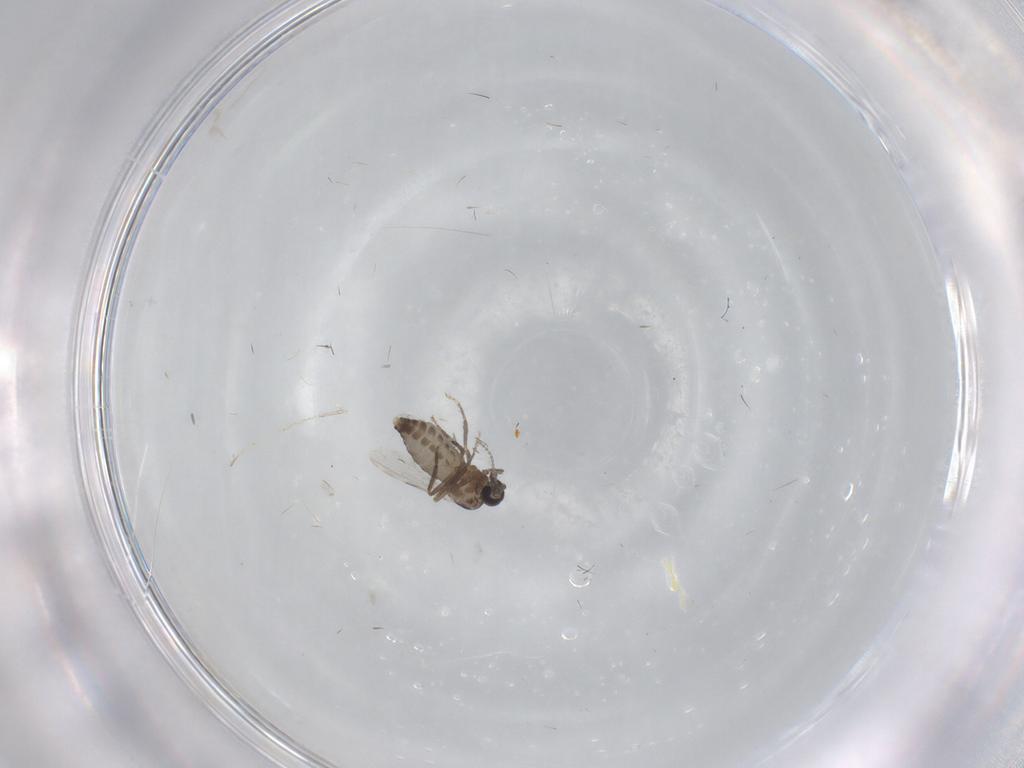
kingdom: Animalia
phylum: Arthropoda
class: Insecta
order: Diptera
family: Ceratopogonidae
